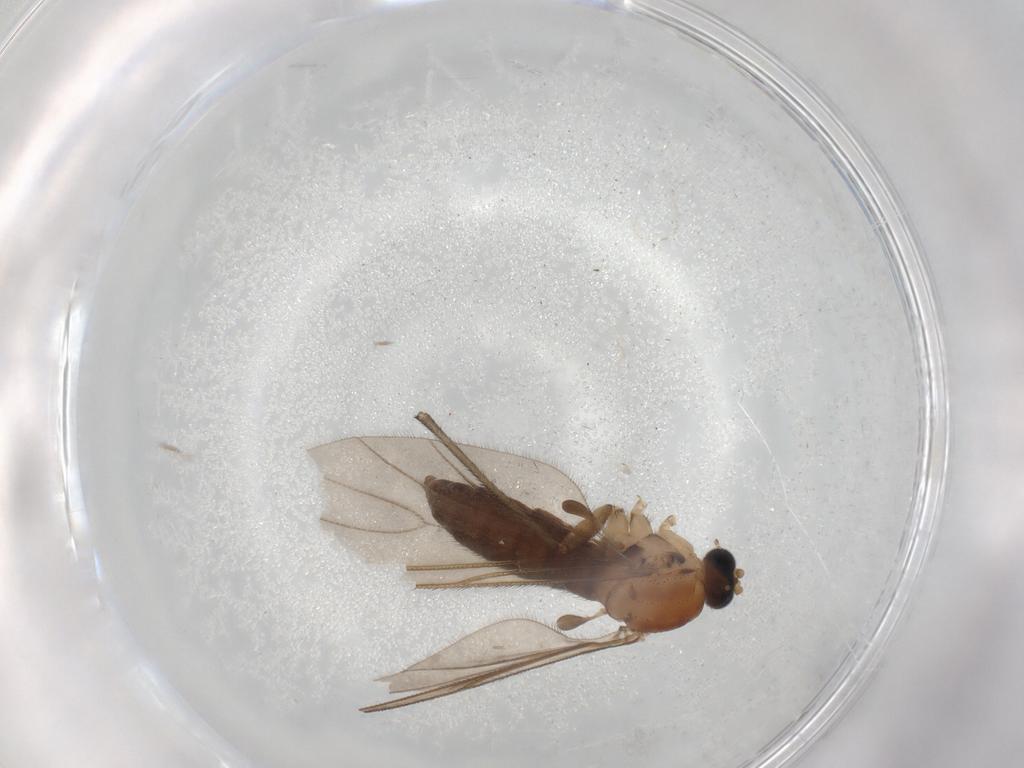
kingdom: Animalia
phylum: Arthropoda
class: Insecta
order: Diptera
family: Sciaridae
